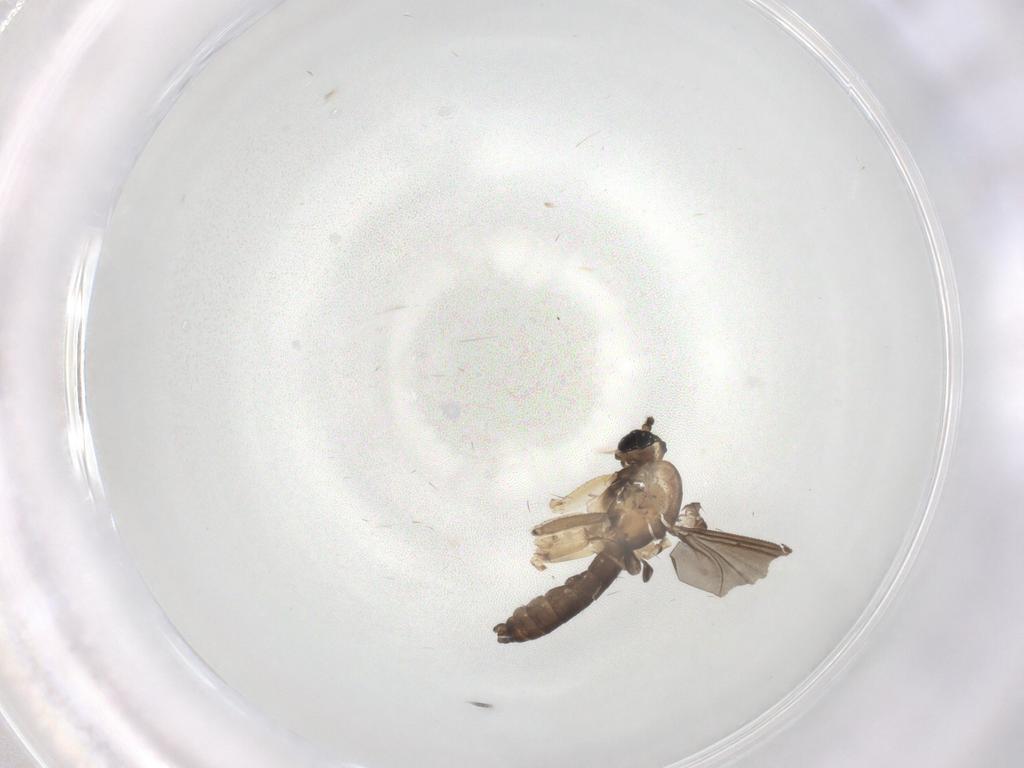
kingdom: Animalia
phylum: Arthropoda
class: Insecta
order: Diptera
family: Sciaridae
